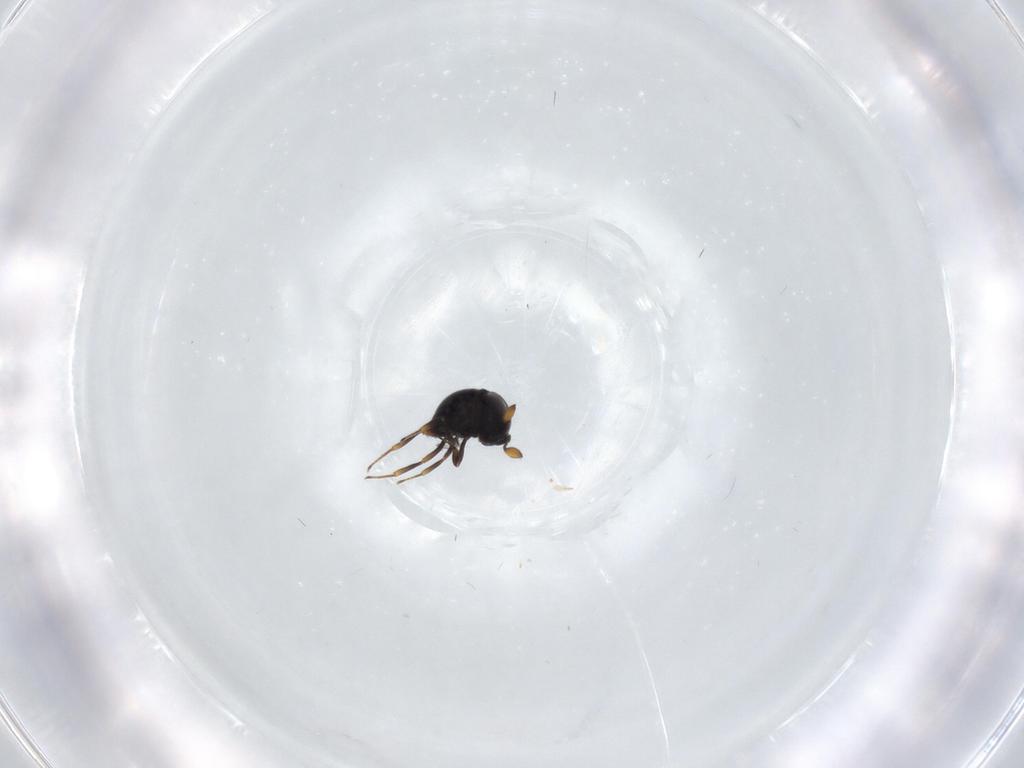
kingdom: Animalia
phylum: Arthropoda
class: Insecta
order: Hymenoptera
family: Scelionidae
